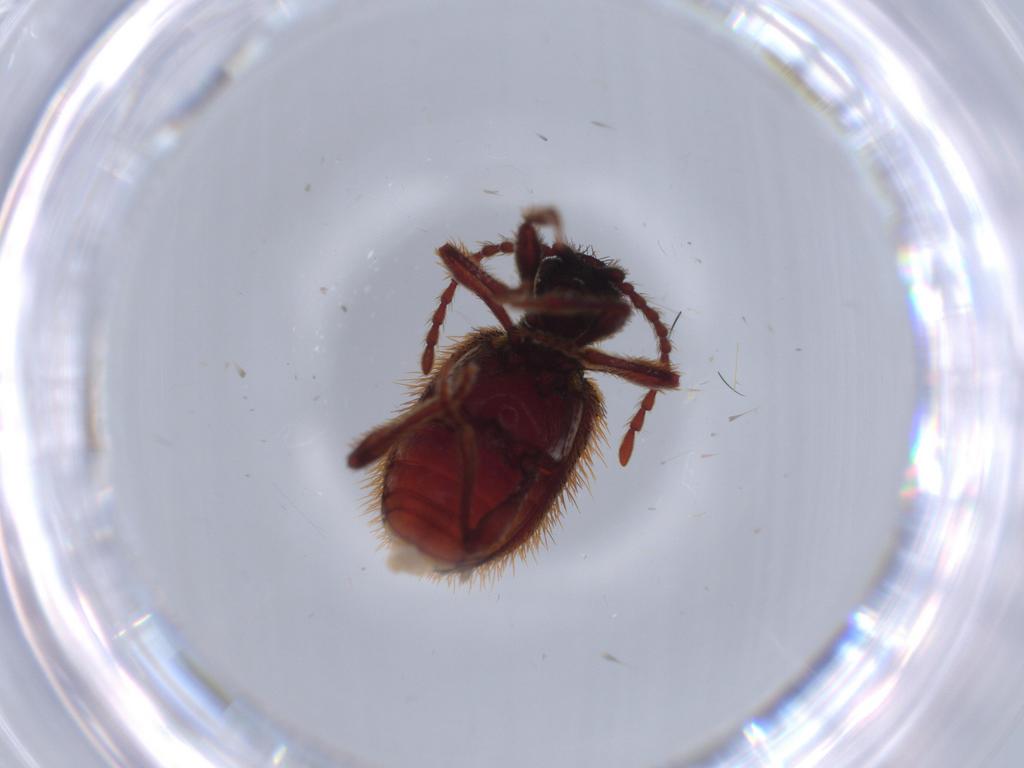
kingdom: Animalia
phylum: Arthropoda
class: Insecta
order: Coleoptera
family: Ptinidae
